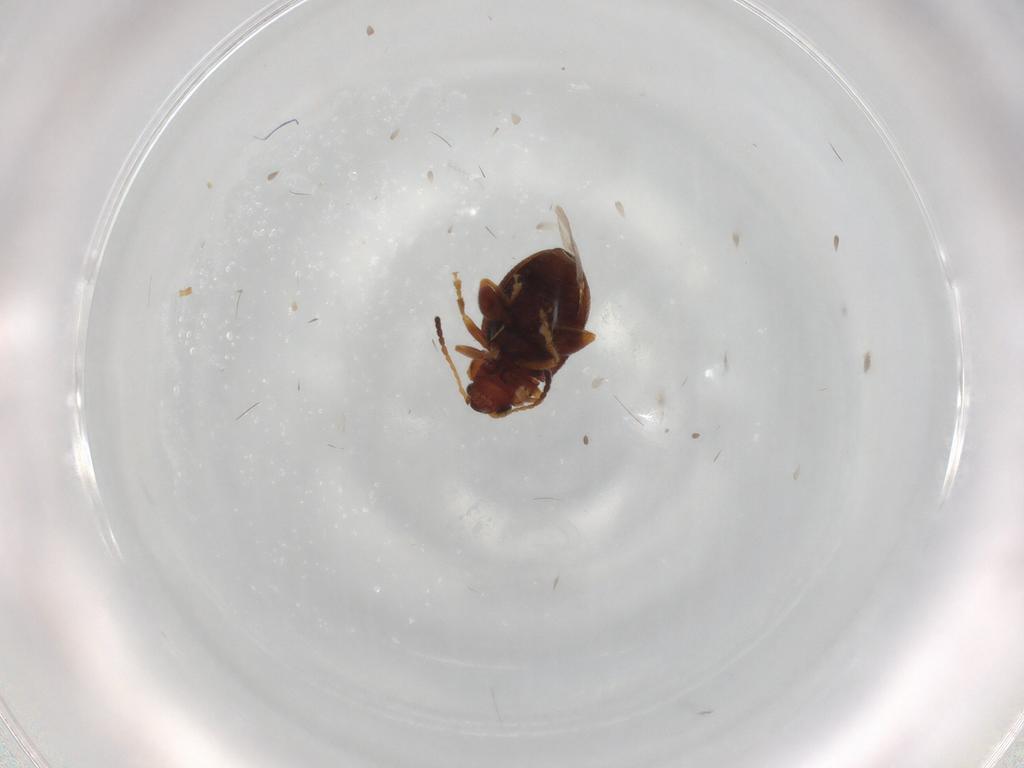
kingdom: Animalia
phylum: Arthropoda
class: Insecta
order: Coleoptera
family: Chrysomelidae
